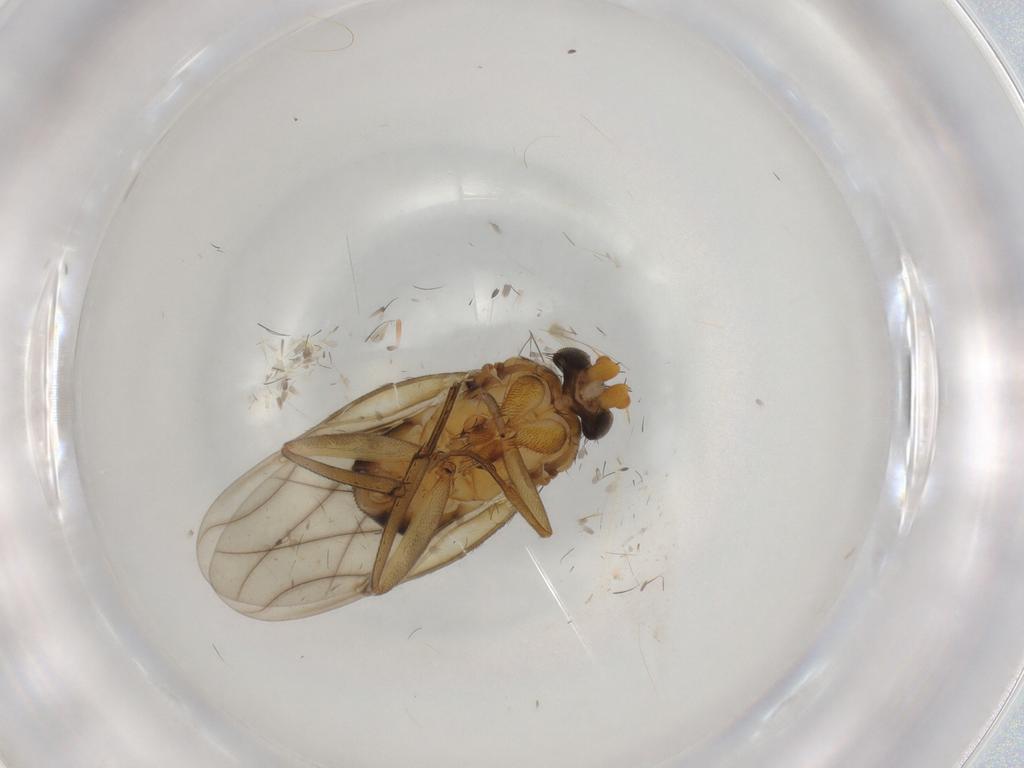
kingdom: Animalia
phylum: Arthropoda
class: Insecta
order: Diptera
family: Phoridae
